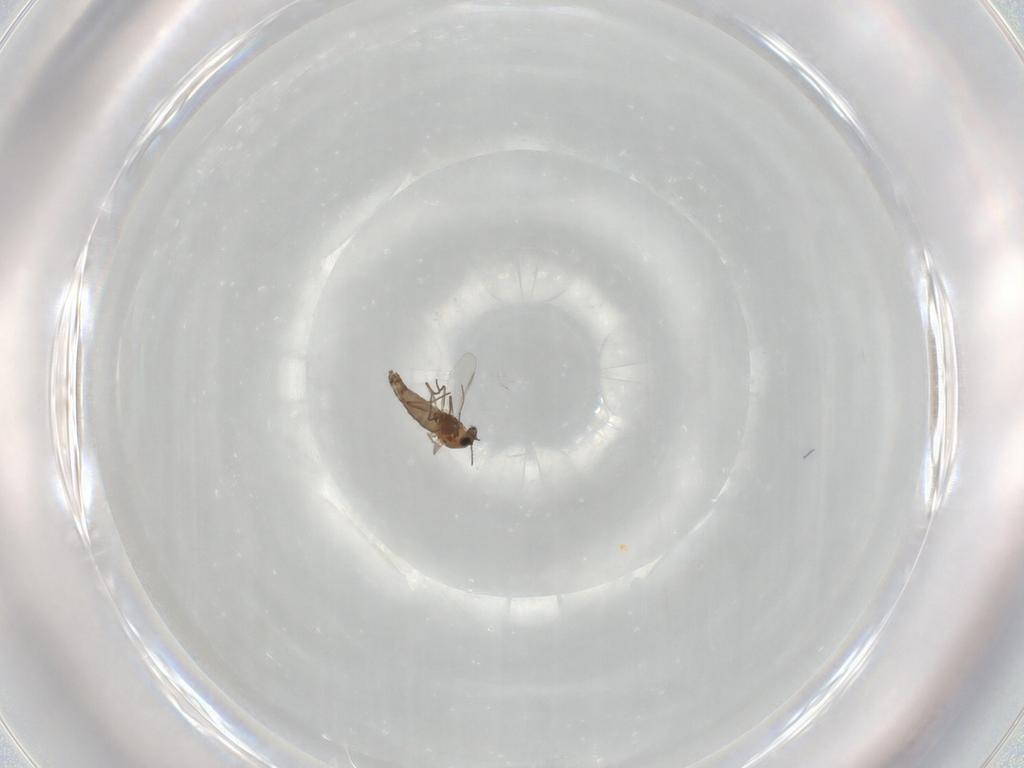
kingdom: Animalia
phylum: Arthropoda
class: Insecta
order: Diptera
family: Chironomidae
